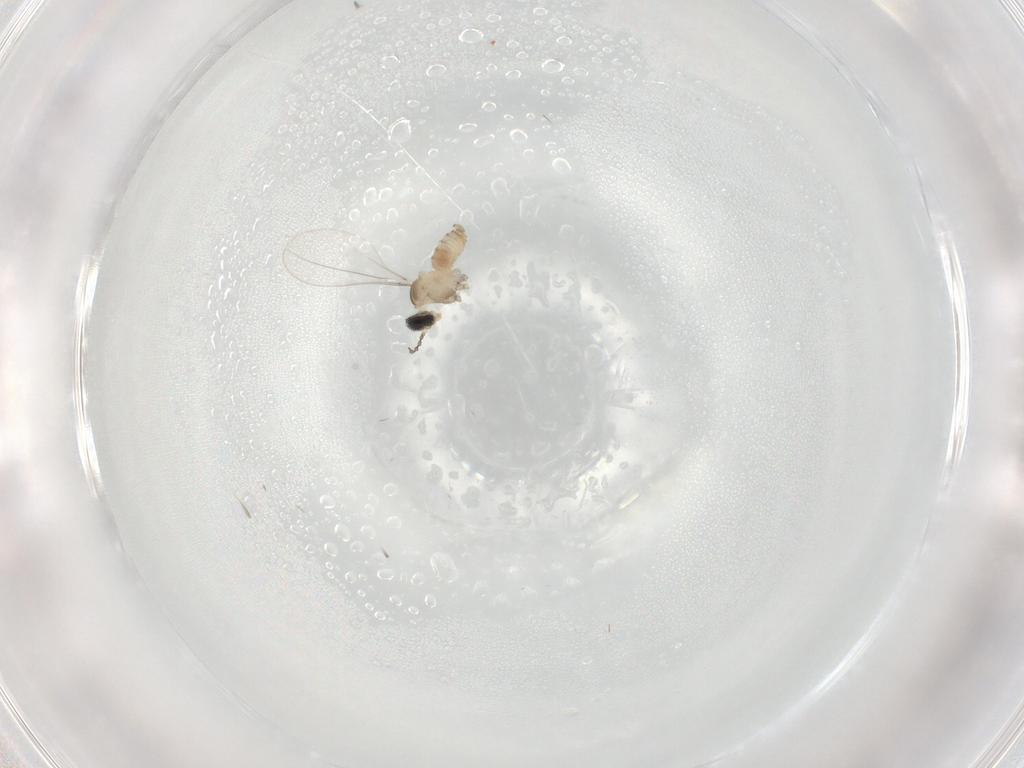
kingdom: Animalia
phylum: Arthropoda
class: Insecta
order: Diptera
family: Cecidomyiidae
